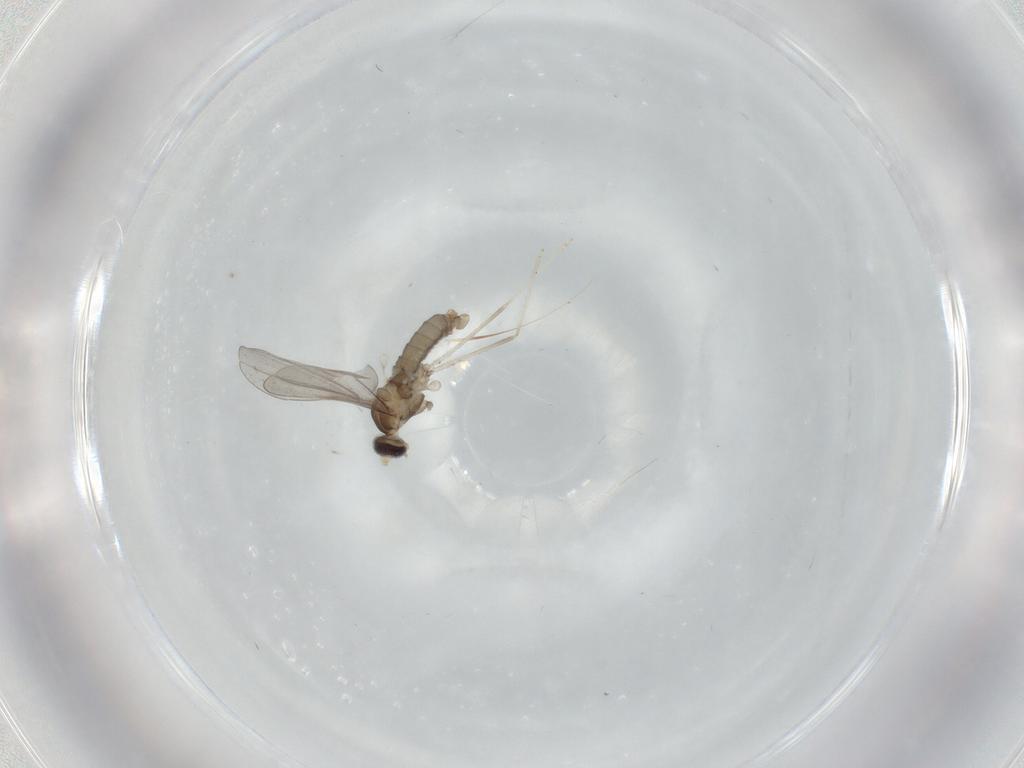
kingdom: Animalia
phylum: Arthropoda
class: Insecta
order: Diptera
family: Cecidomyiidae
